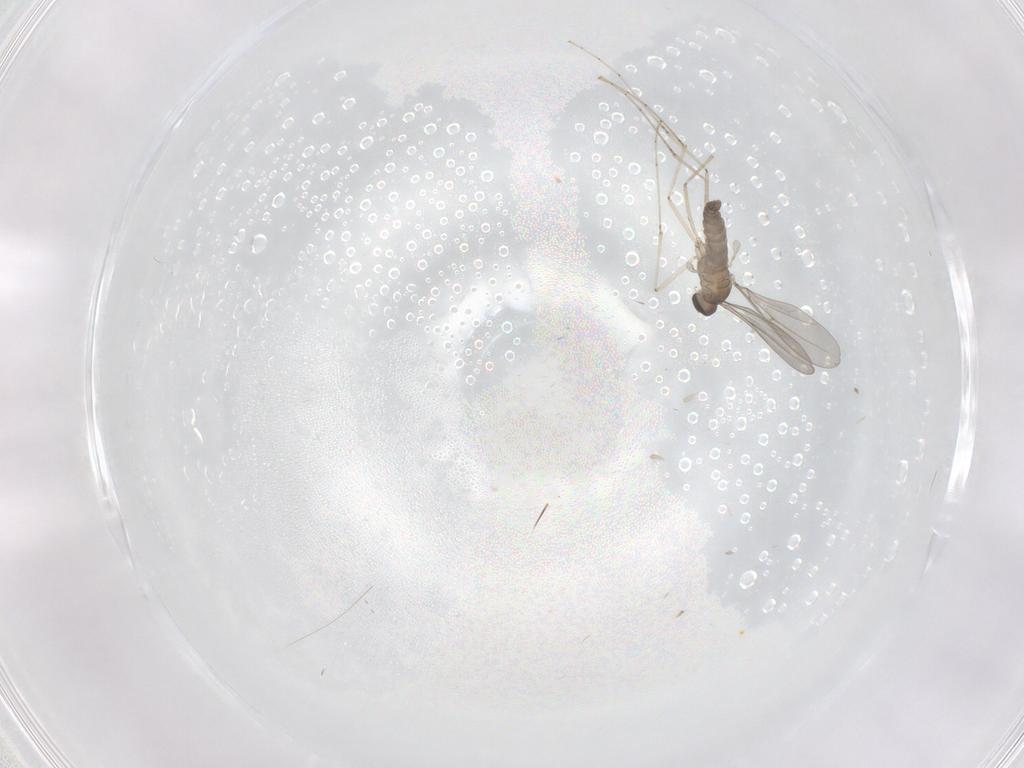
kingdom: Animalia
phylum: Arthropoda
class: Insecta
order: Diptera
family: Cecidomyiidae
